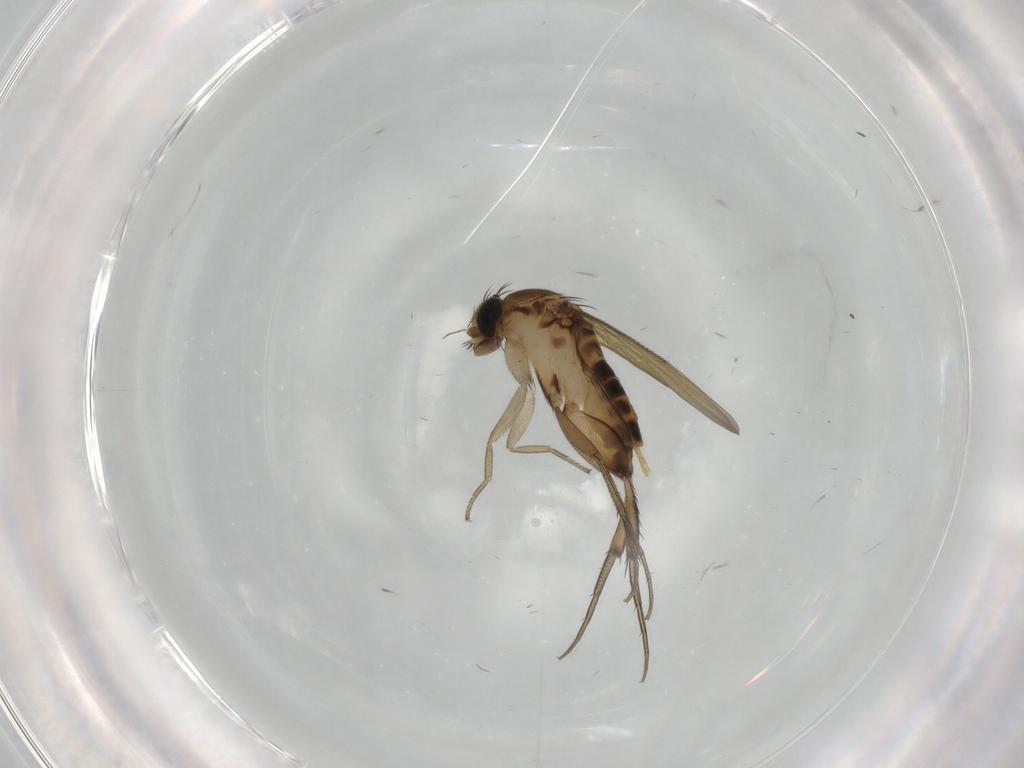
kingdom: Animalia
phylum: Arthropoda
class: Insecta
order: Diptera
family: Phoridae
